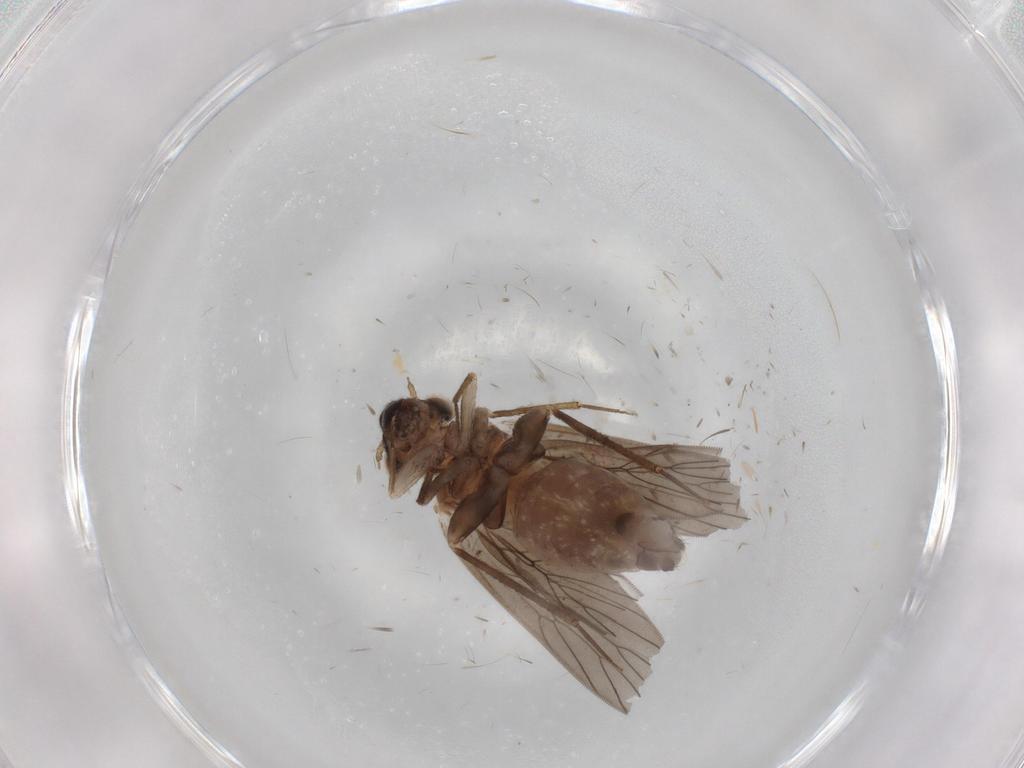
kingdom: Animalia
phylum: Arthropoda
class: Insecta
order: Psocodea
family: Lepidopsocidae
